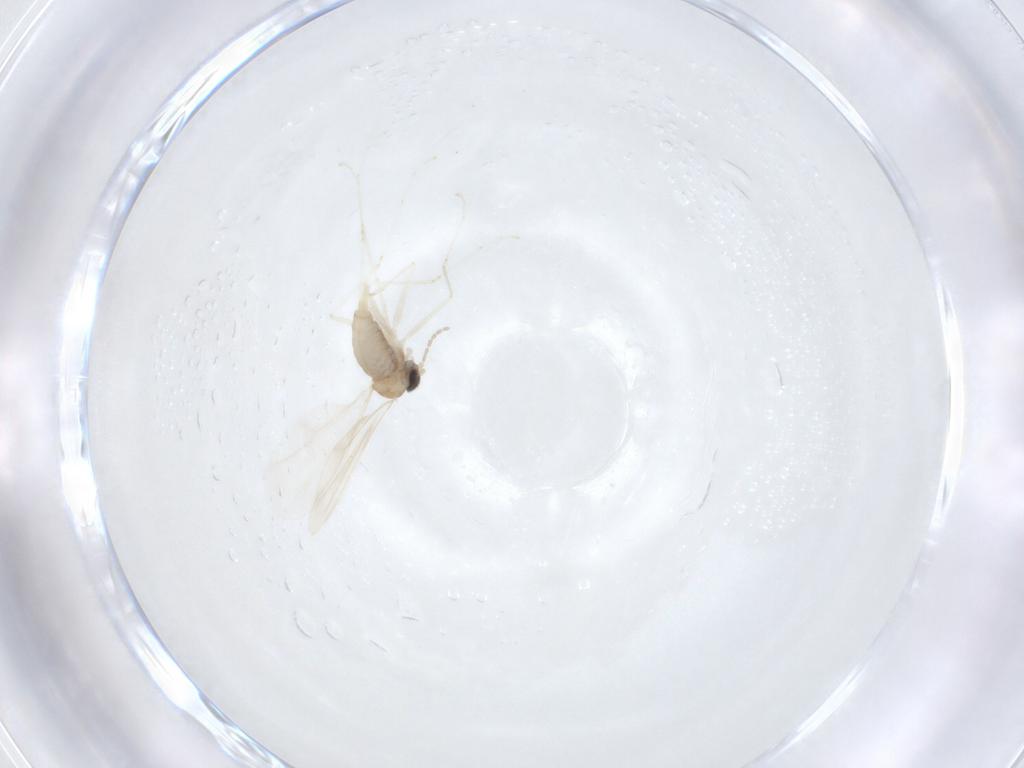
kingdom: Animalia
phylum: Arthropoda
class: Insecta
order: Diptera
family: Cecidomyiidae
